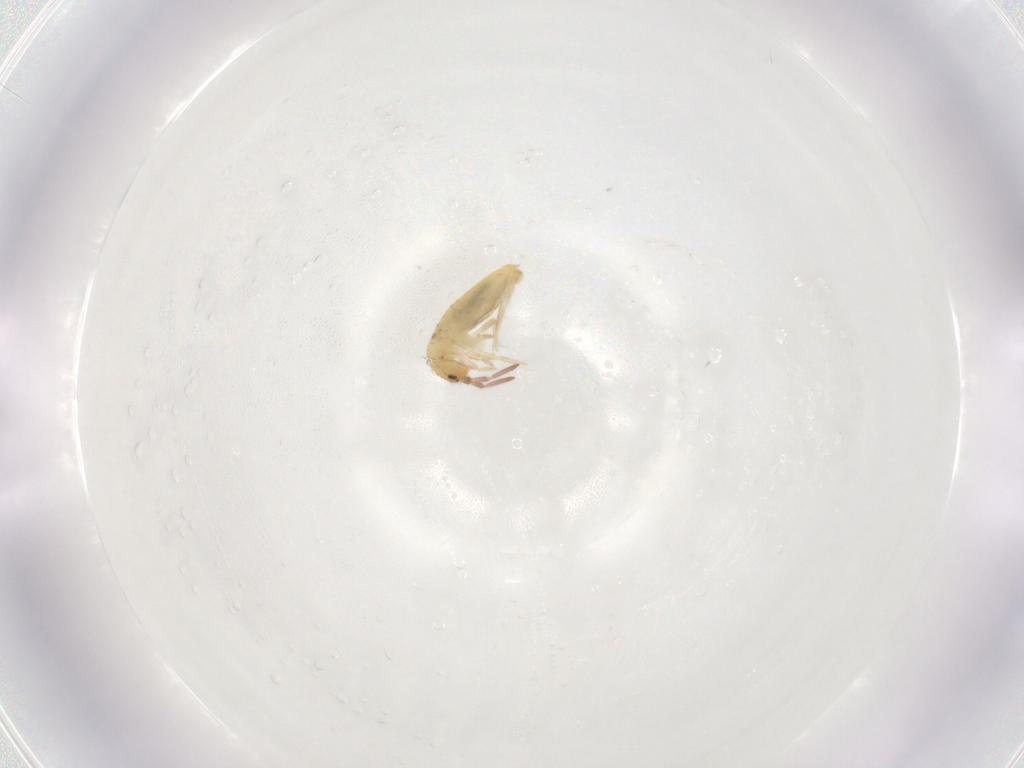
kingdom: Animalia
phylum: Arthropoda
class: Collembola
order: Entomobryomorpha
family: Entomobryidae
